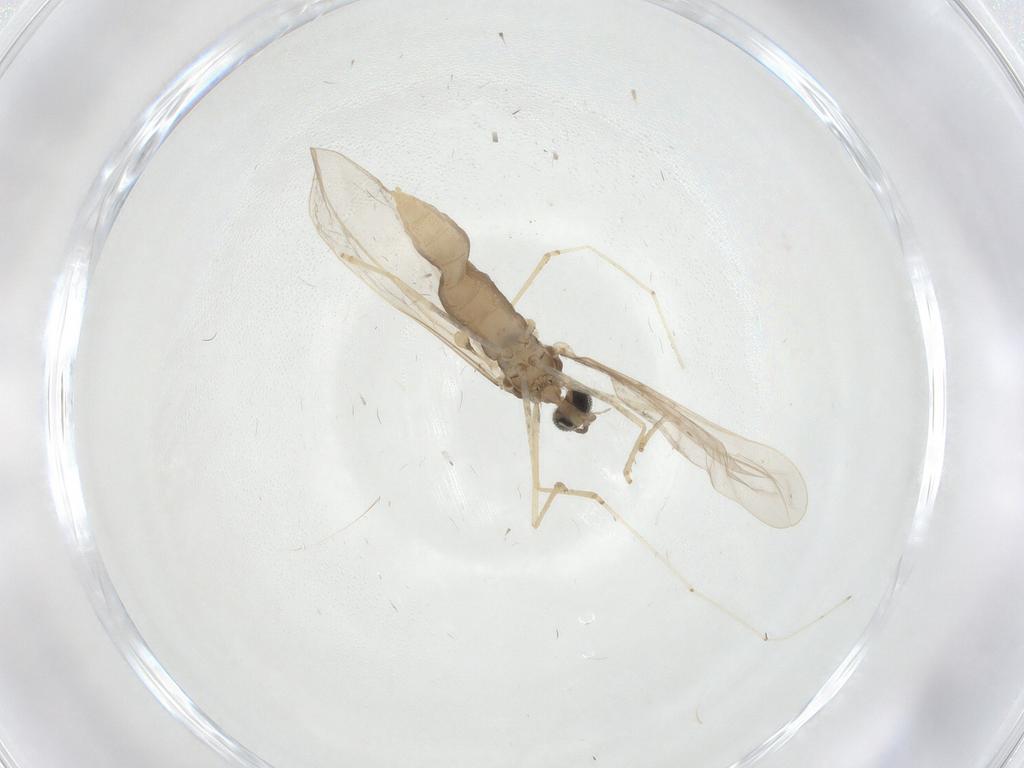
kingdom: Animalia
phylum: Arthropoda
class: Insecta
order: Diptera
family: Cecidomyiidae
